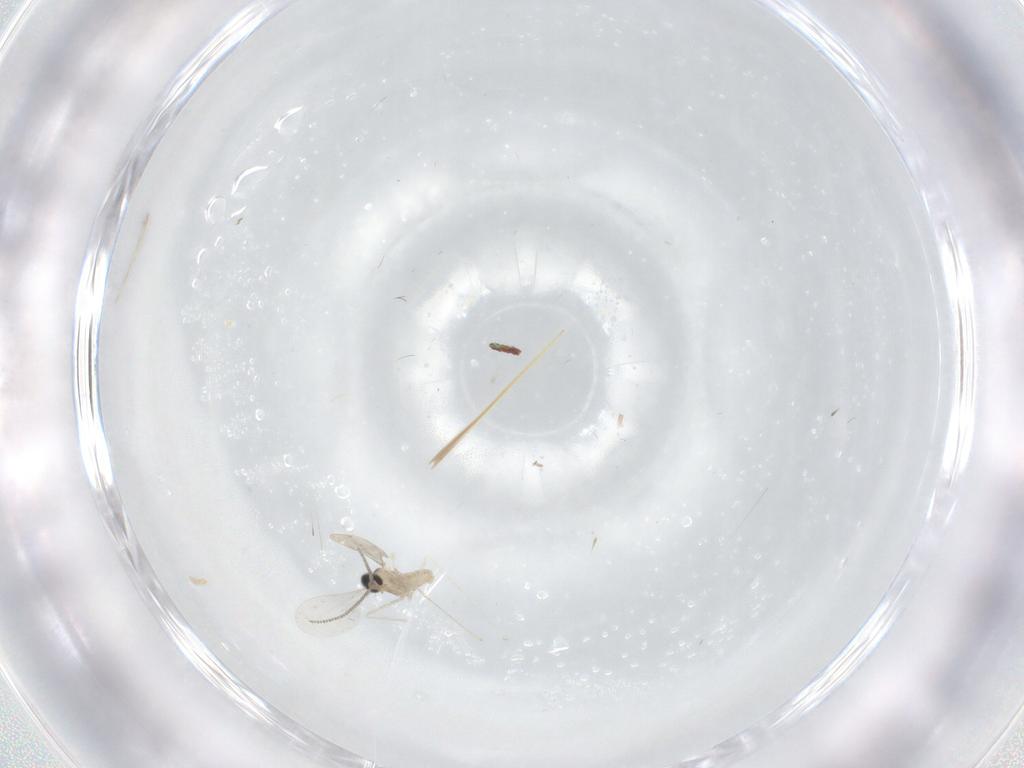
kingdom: Animalia
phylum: Arthropoda
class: Insecta
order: Diptera
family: Cecidomyiidae
